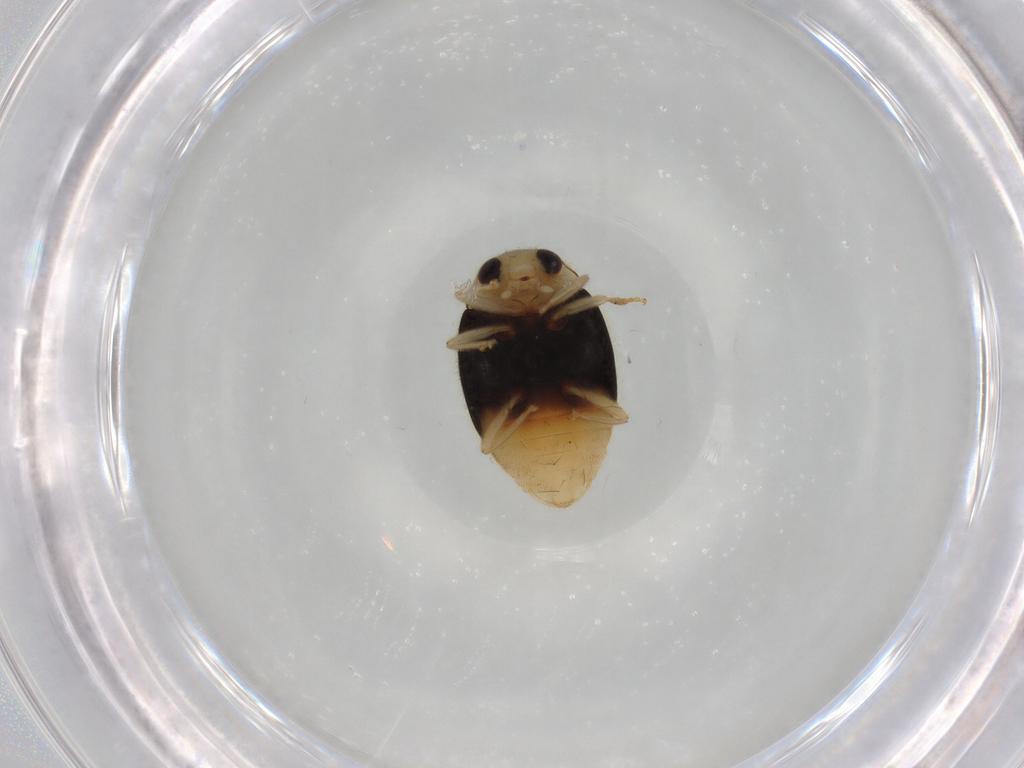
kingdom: Animalia
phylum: Arthropoda
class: Insecta
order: Coleoptera
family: Coccinellidae
